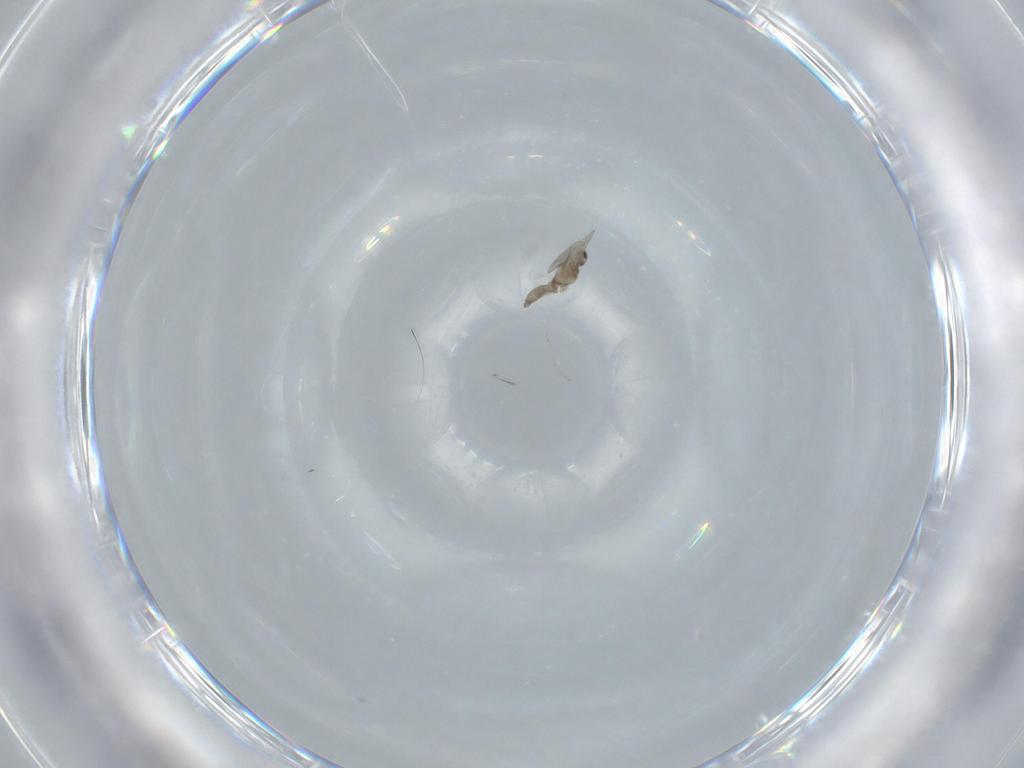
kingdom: Animalia
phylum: Arthropoda
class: Insecta
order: Diptera
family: Cecidomyiidae
